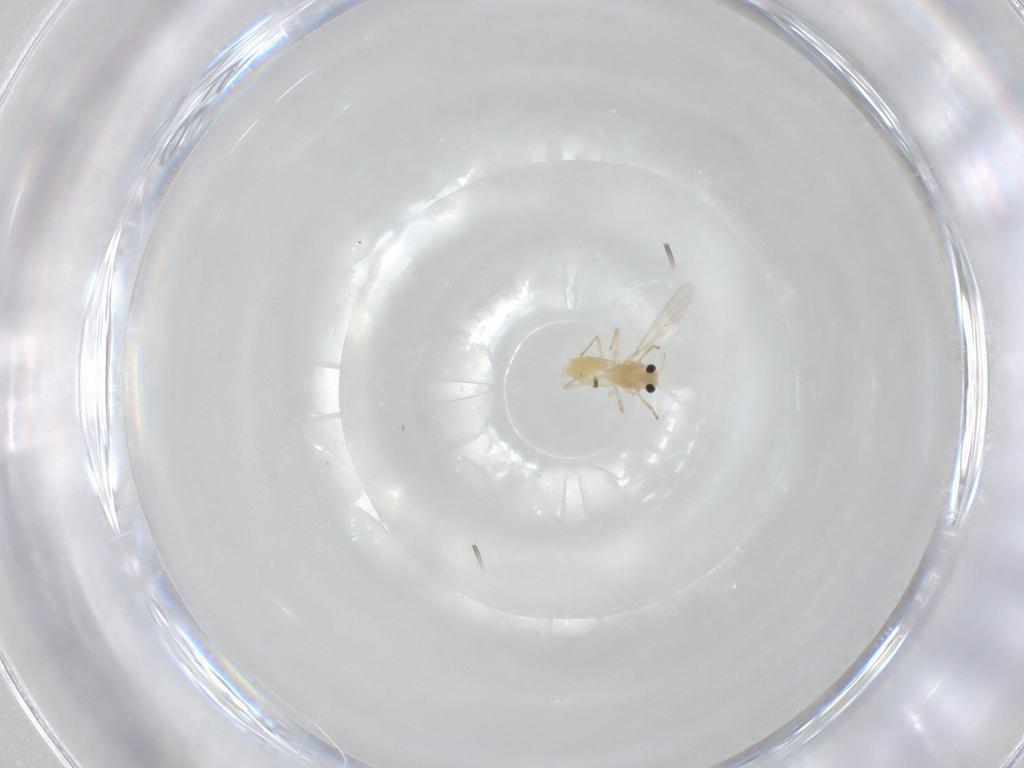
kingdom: Animalia
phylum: Arthropoda
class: Insecta
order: Diptera
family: Chironomidae
